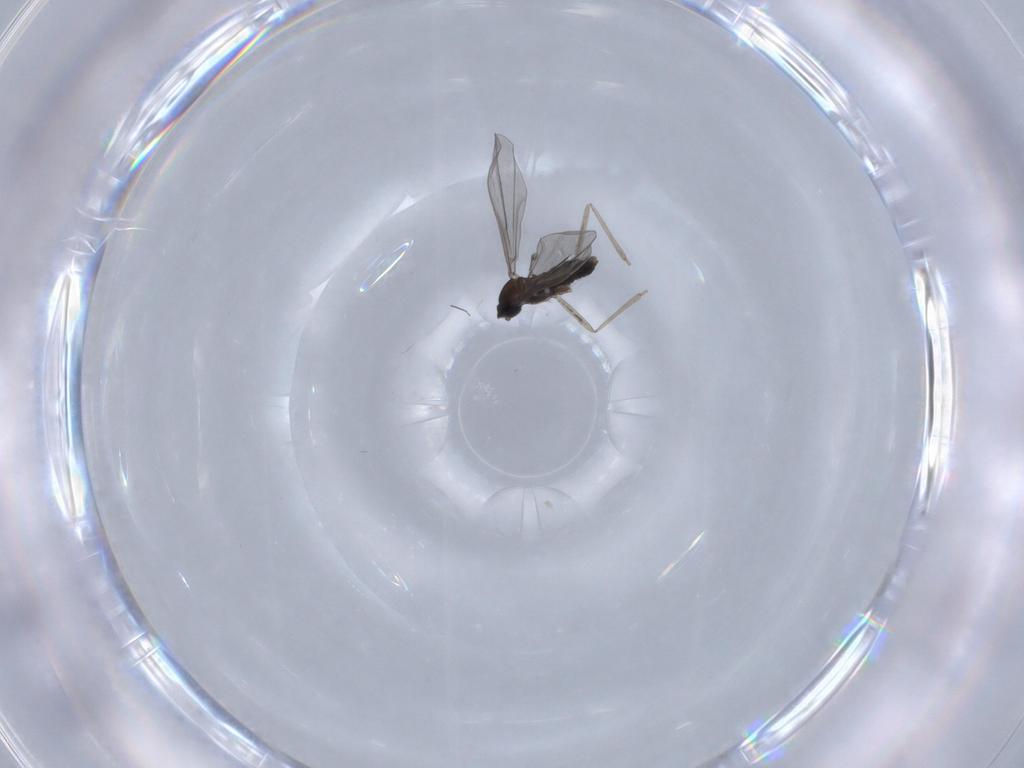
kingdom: Animalia
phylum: Arthropoda
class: Insecta
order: Diptera
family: Cecidomyiidae
